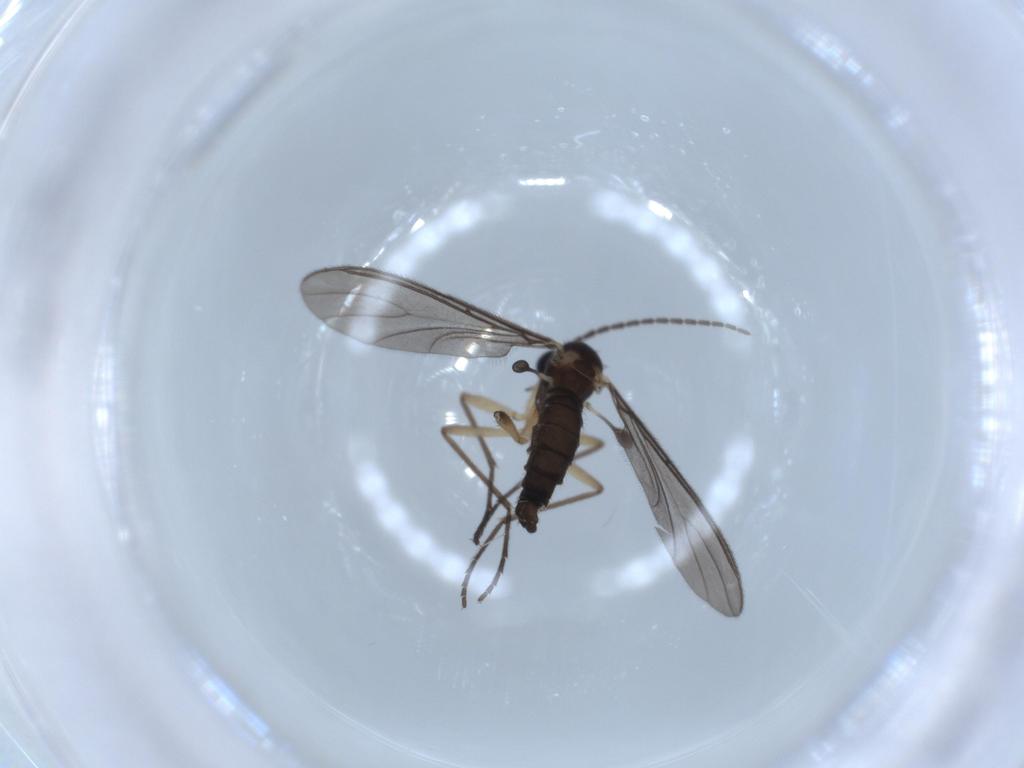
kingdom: Animalia
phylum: Arthropoda
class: Insecta
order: Diptera
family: Sciaridae
